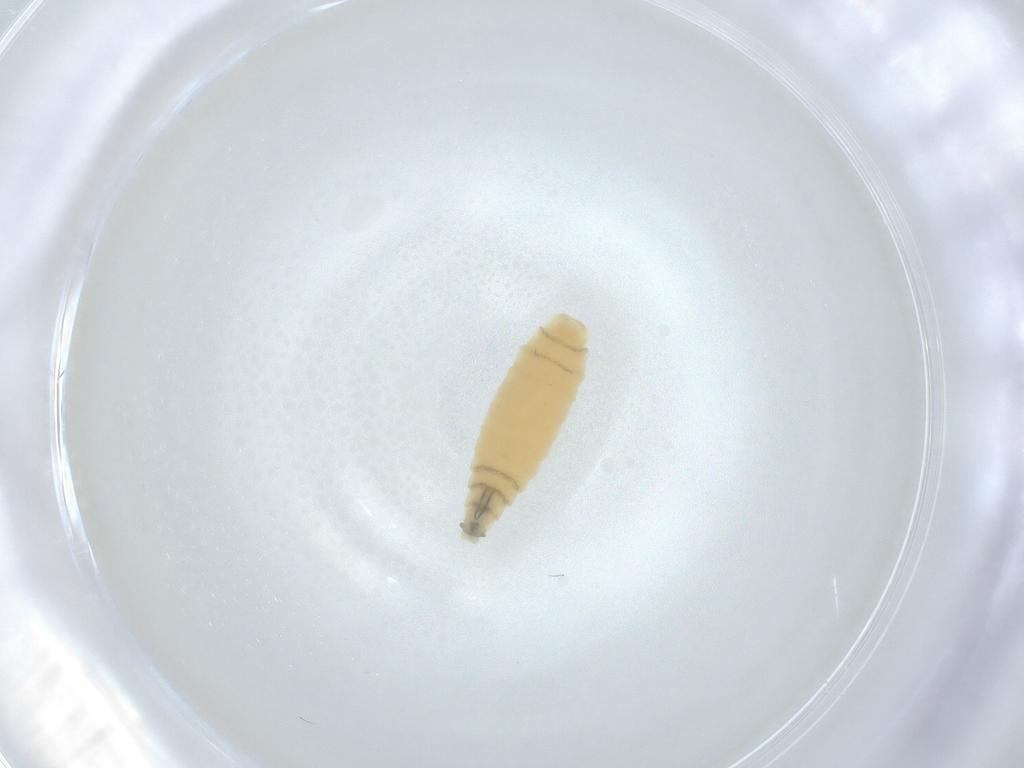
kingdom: Animalia
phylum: Arthropoda
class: Insecta
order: Diptera
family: Sarcophagidae
